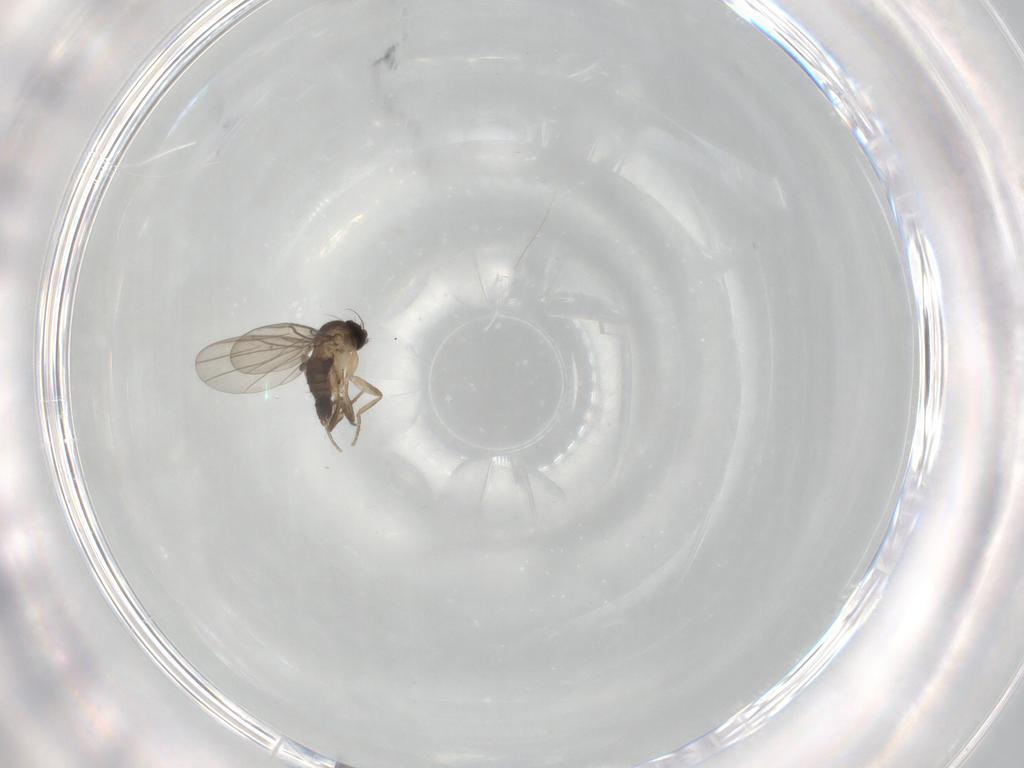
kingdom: Animalia
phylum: Arthropoda
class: Insecta
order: Diptera
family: Phoridae
